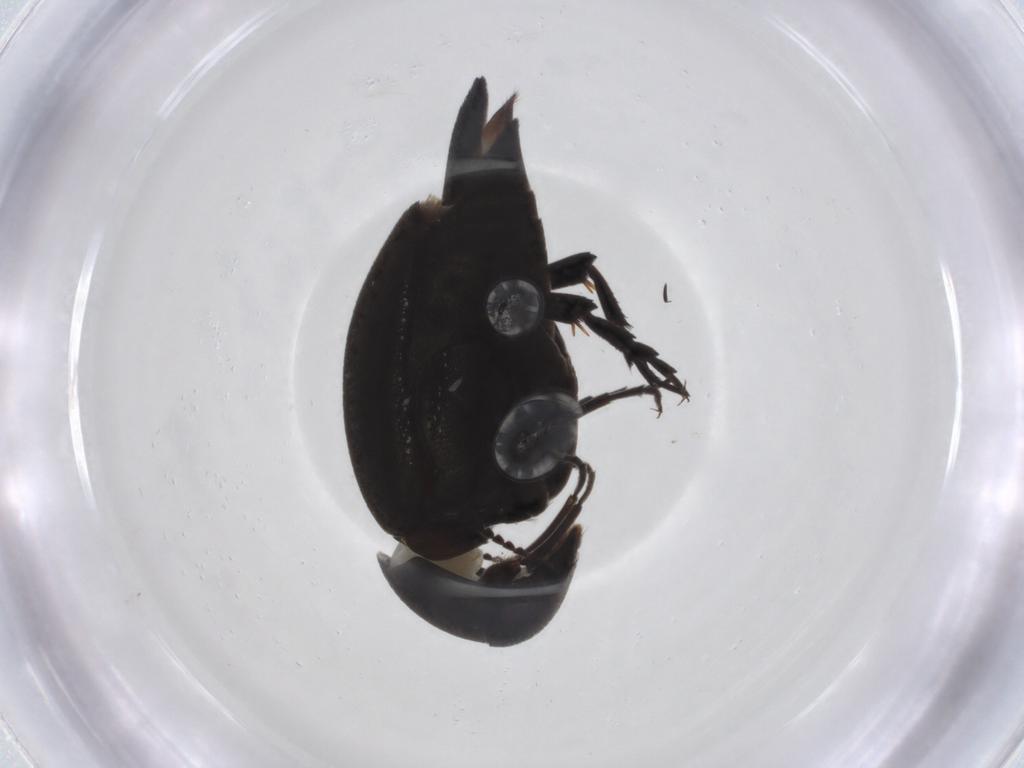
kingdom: Animalia
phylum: Arthropoda
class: Insecta
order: Coleoptera
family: Mordellidae
